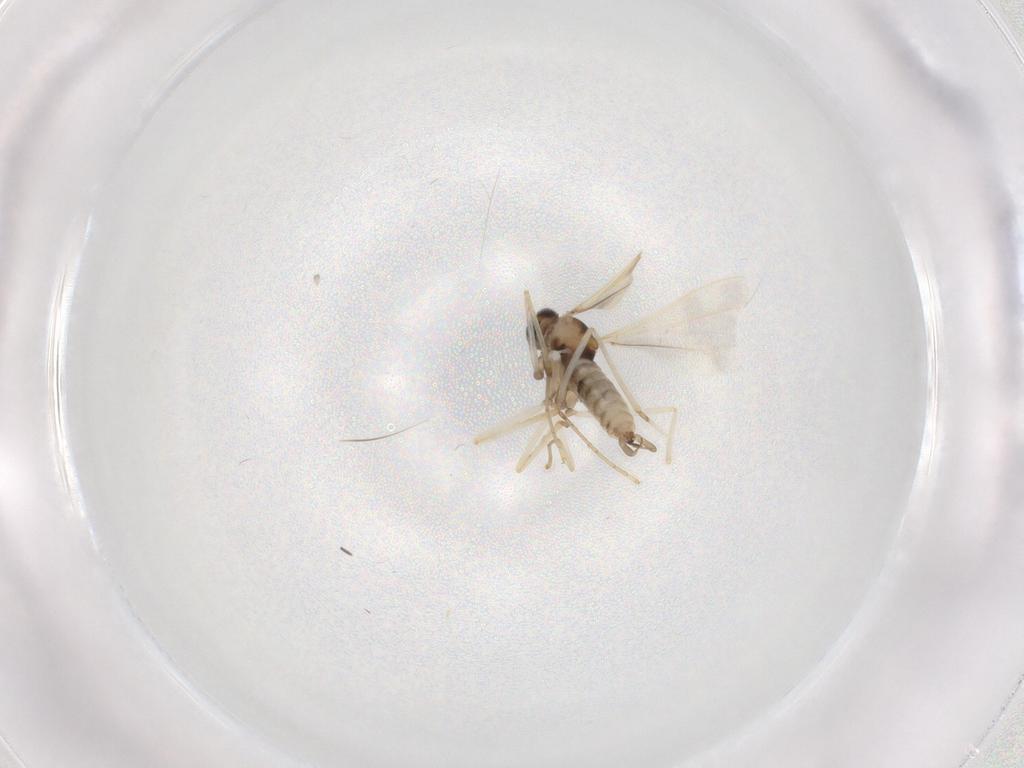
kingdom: Animalia
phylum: Arthropoda
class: Insecta
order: Diptera
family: Cecidomyiidae
